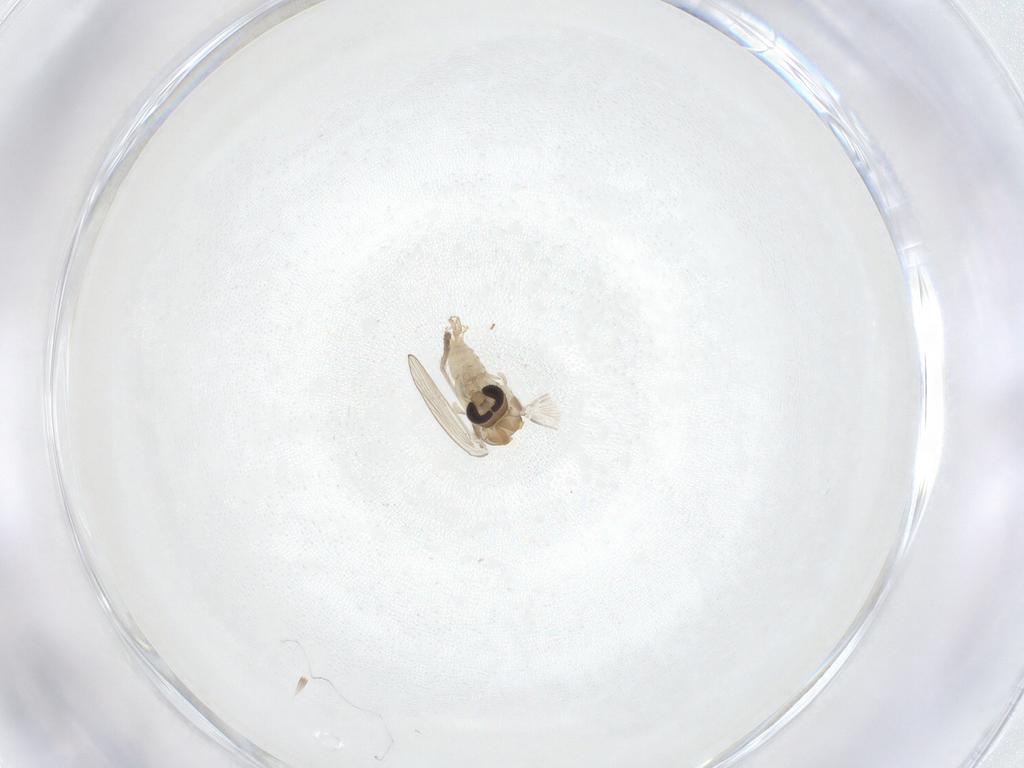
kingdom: Animalia
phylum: Arthropoda
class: Insecta
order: Diptera
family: Psychodidae
